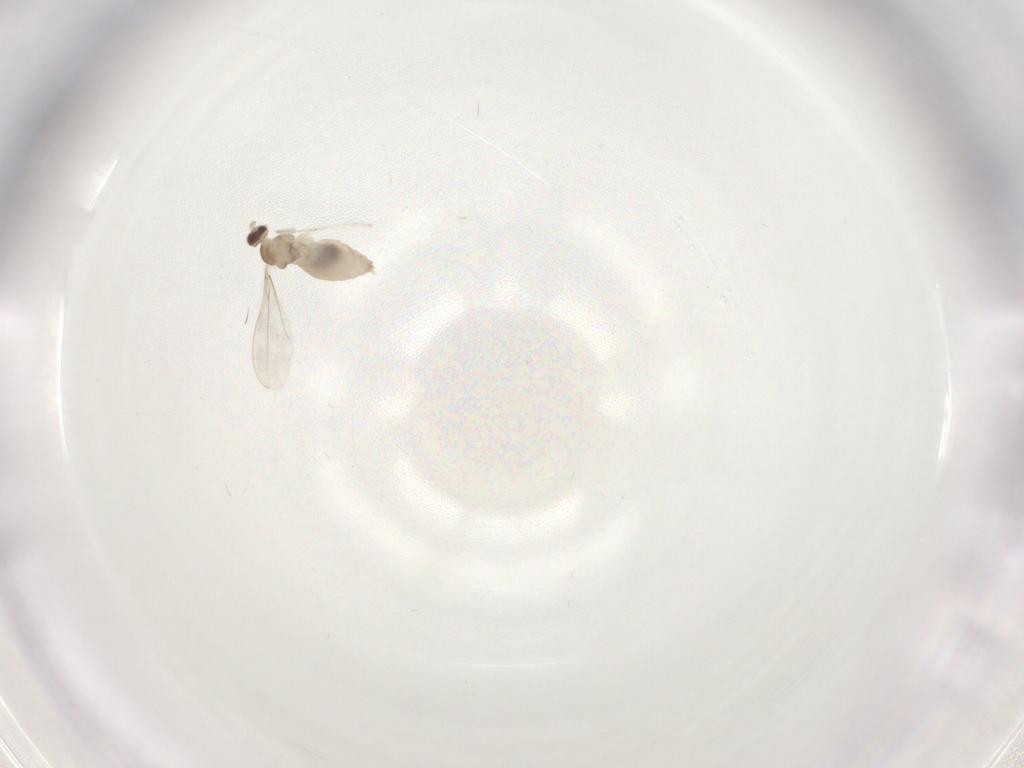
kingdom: Animalia
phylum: Arthropoda
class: Insecta
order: Diptera
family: Cecidomyiidae
